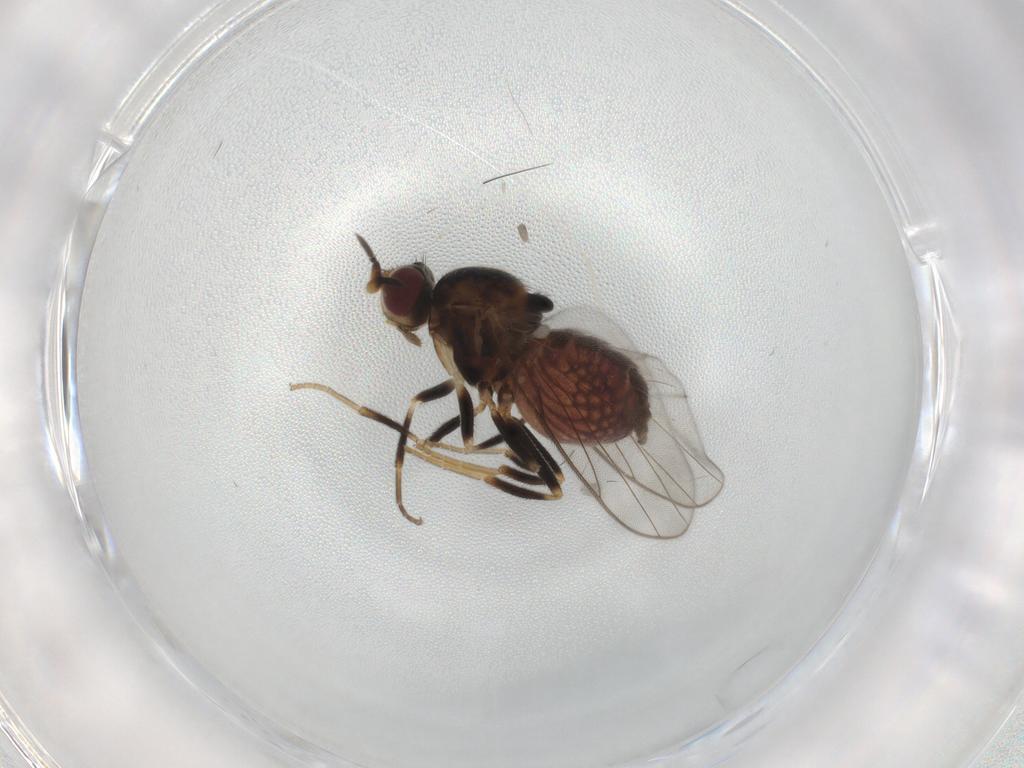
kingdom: Animalia
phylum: Arthropoda
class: Insecta
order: Diptera
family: Chloropidae
